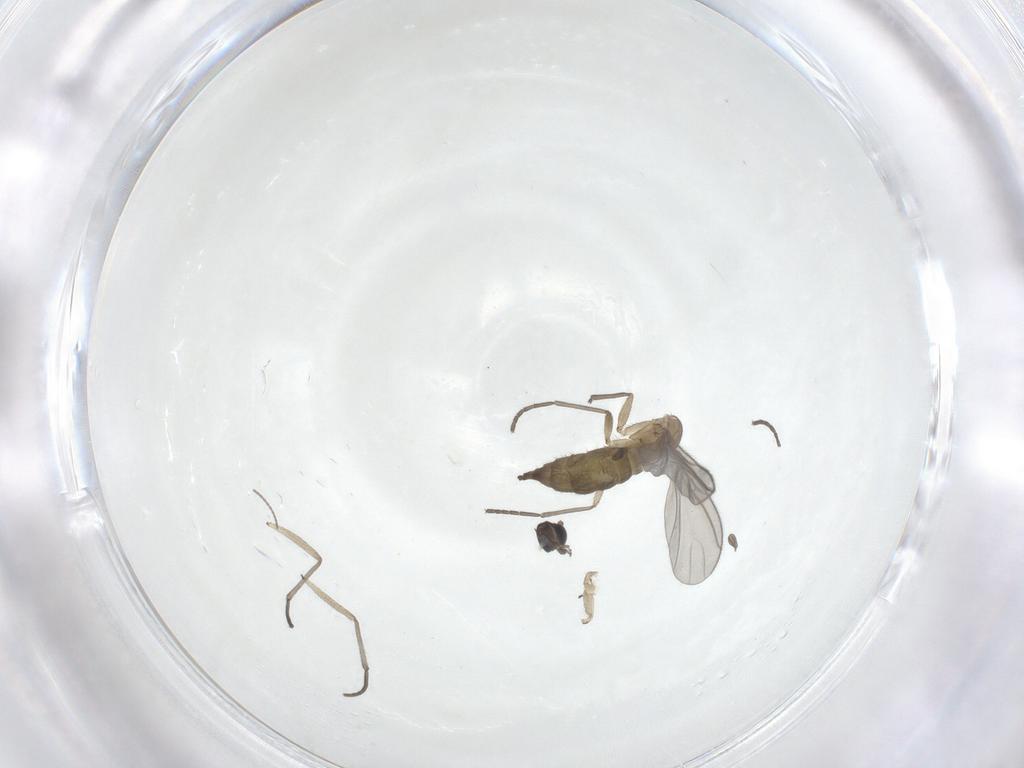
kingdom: Animalia
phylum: Arthropoda
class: Insecta
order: Diptera
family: Sciaridae
